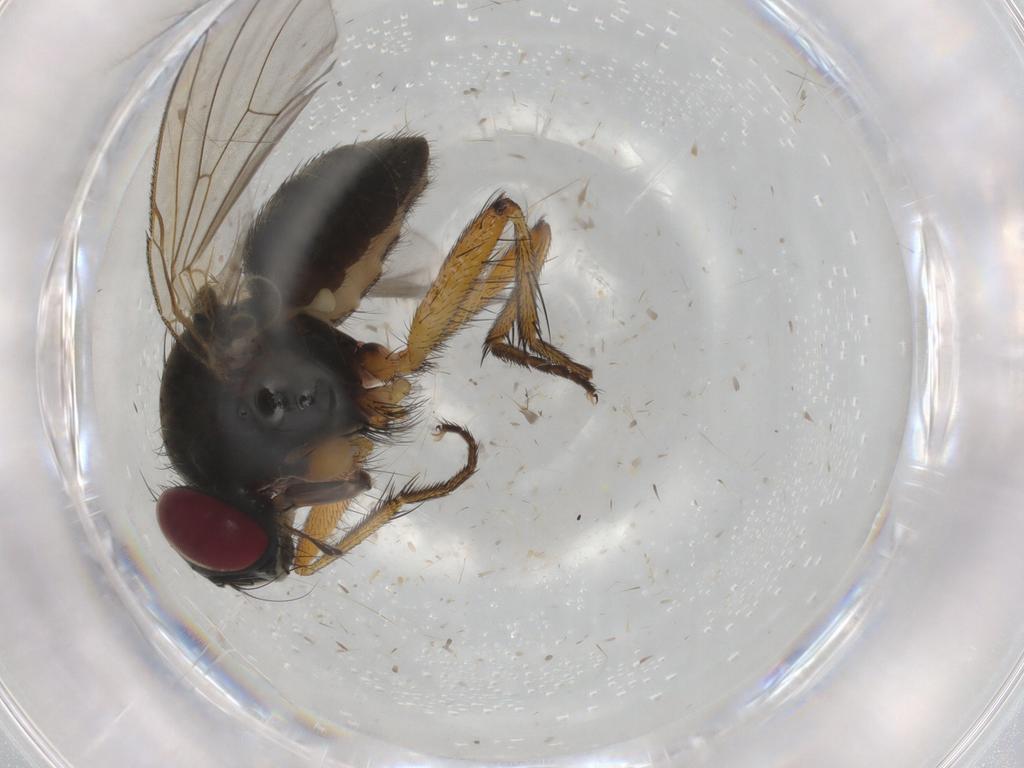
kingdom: Animalia
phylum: Arthropoda
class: Insecta
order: Diptera
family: Muscidae
